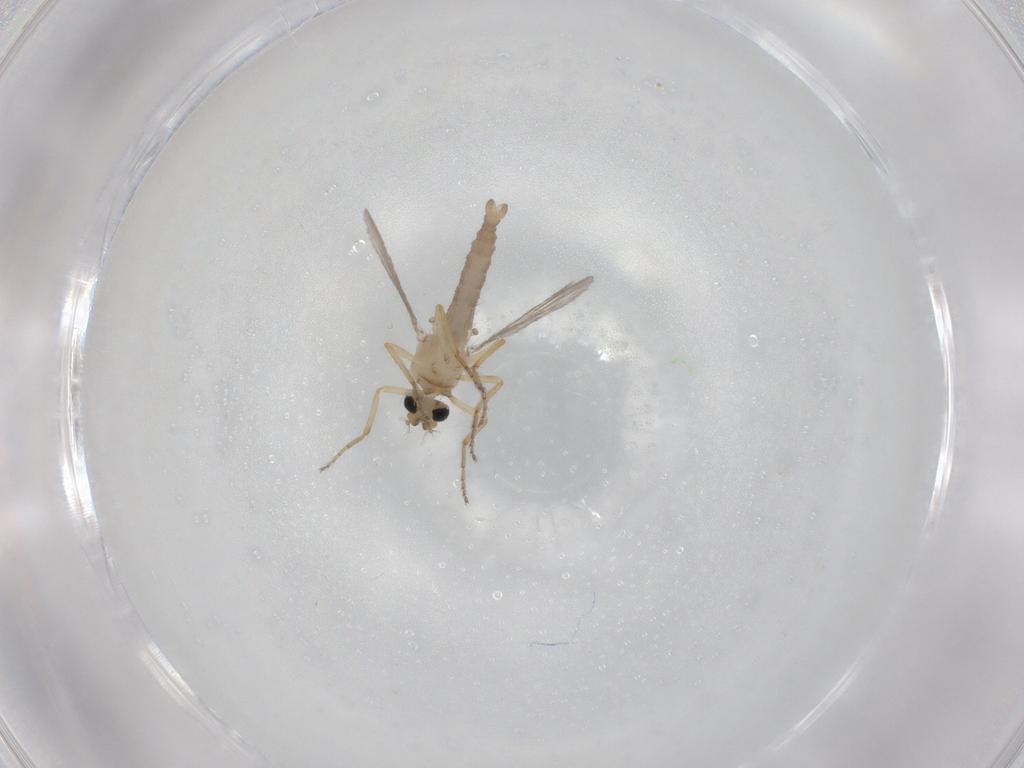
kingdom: Animalia
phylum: Arthropoda
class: Insecta
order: Diptera
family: Ceratopogonidae
